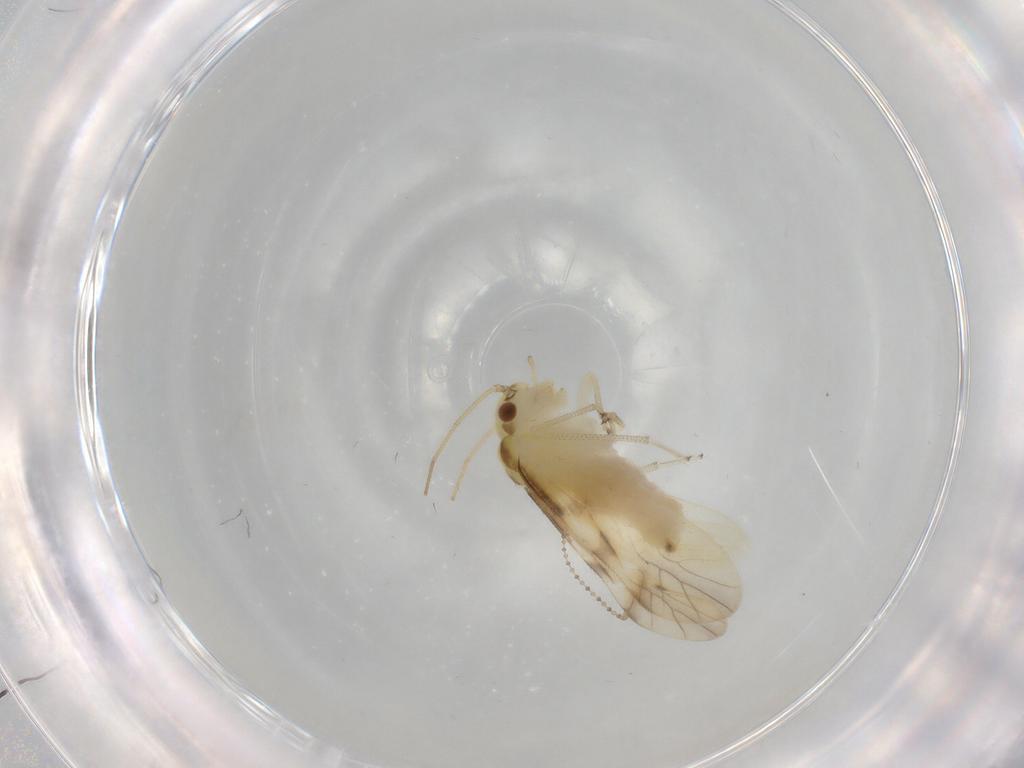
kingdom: Animalia
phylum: Arthropoda
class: Insecta
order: Psocodea
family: Caeciliusidae
